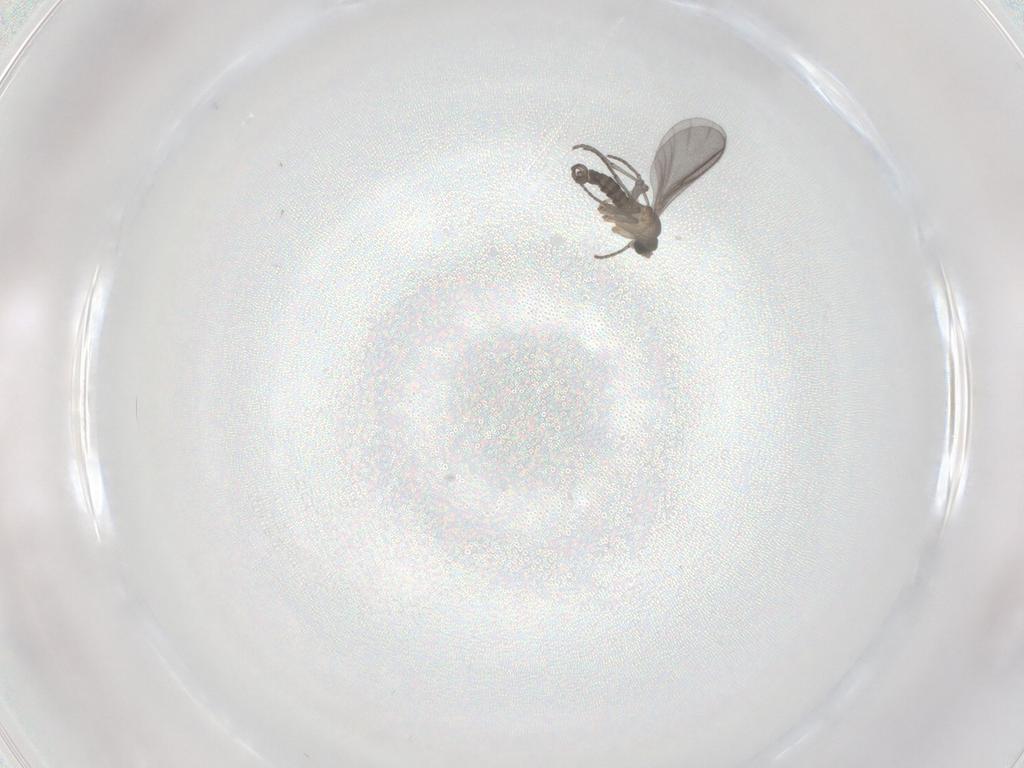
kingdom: Animalia
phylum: Arthropoda
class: Insecta
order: Diptera
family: Sciaridae
